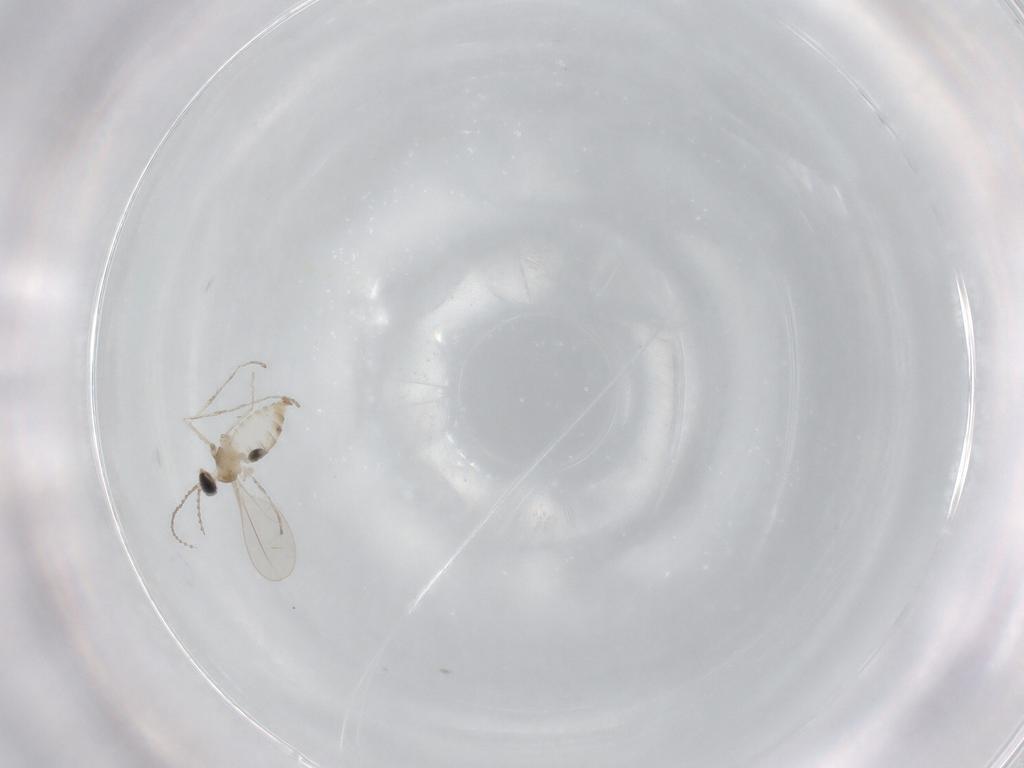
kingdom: Animalia
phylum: Arthropoda
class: Insecta
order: Diptera
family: Cecidomyiidae
